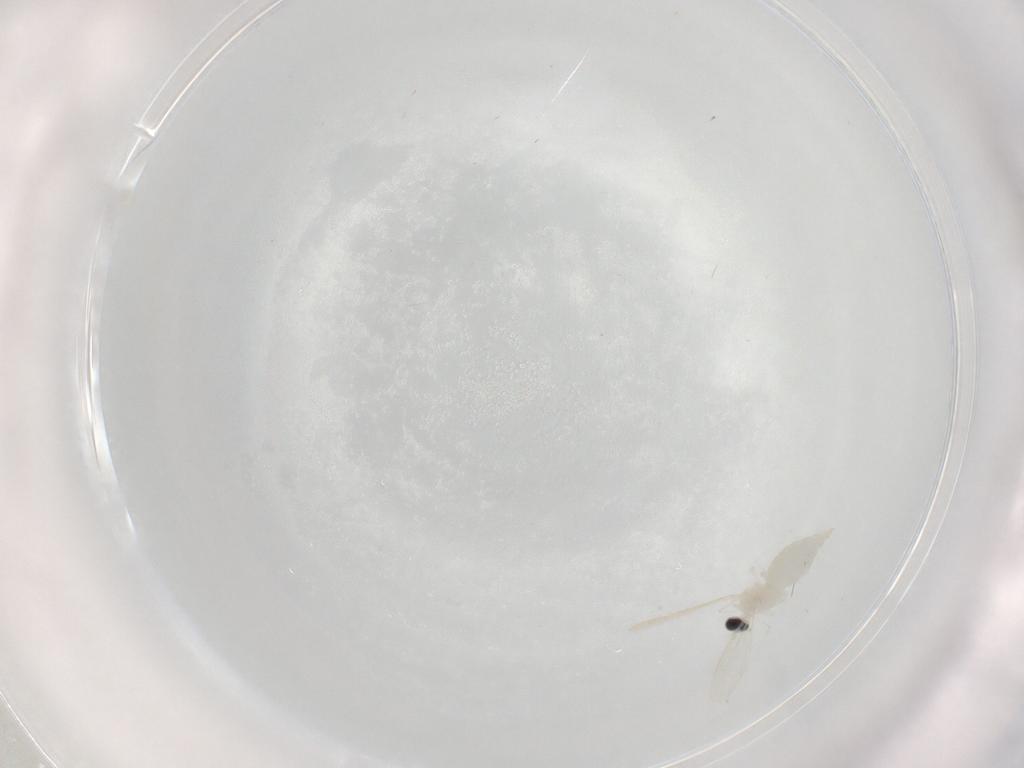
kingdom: Animalia
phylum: Arthropoda
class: Insecta
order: Diptera
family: Cecidomyiidae
